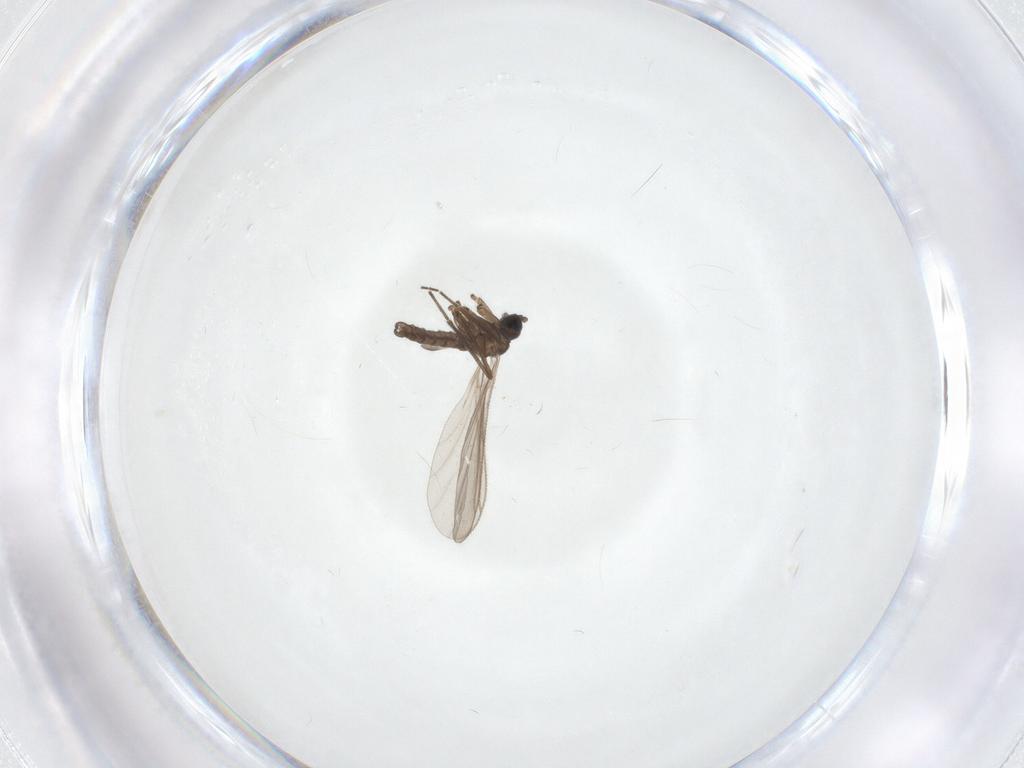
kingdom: Animalia
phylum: Arthropoda
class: Insecta
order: Diptera
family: Sciaridae
